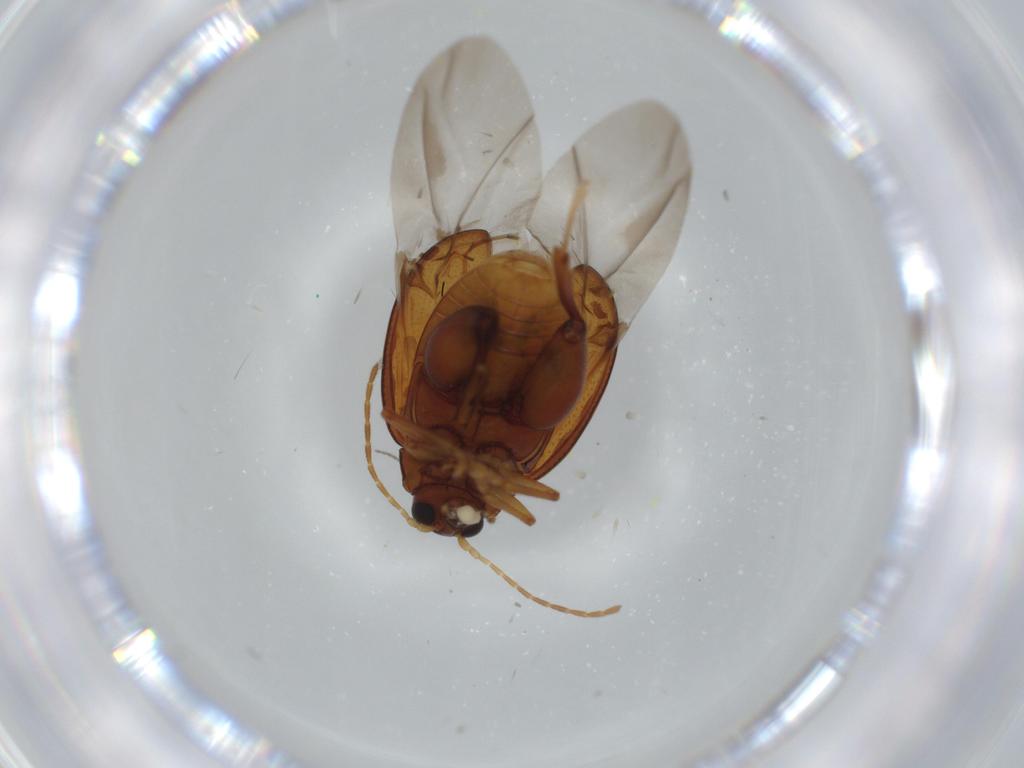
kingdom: Animalia
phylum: Arthropoda
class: Insecta
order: Coleoptera
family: Chrysomelidae
